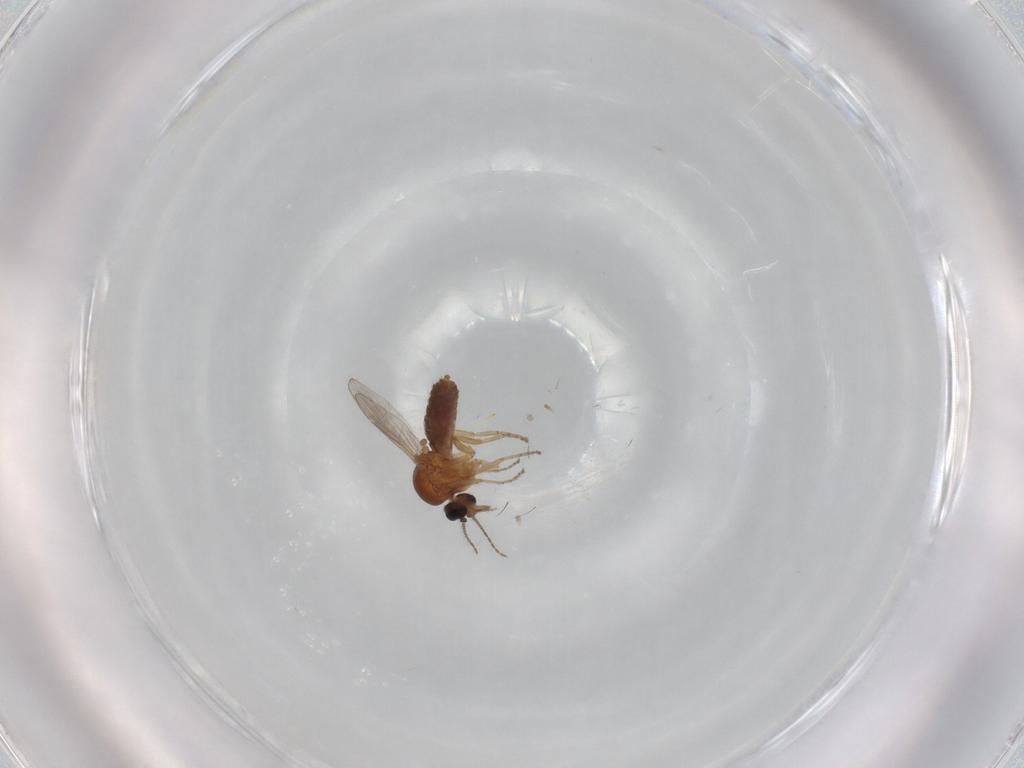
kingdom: Animalia
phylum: Arthropoda
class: Insecta
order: Diptera
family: Ceratopogonidae
